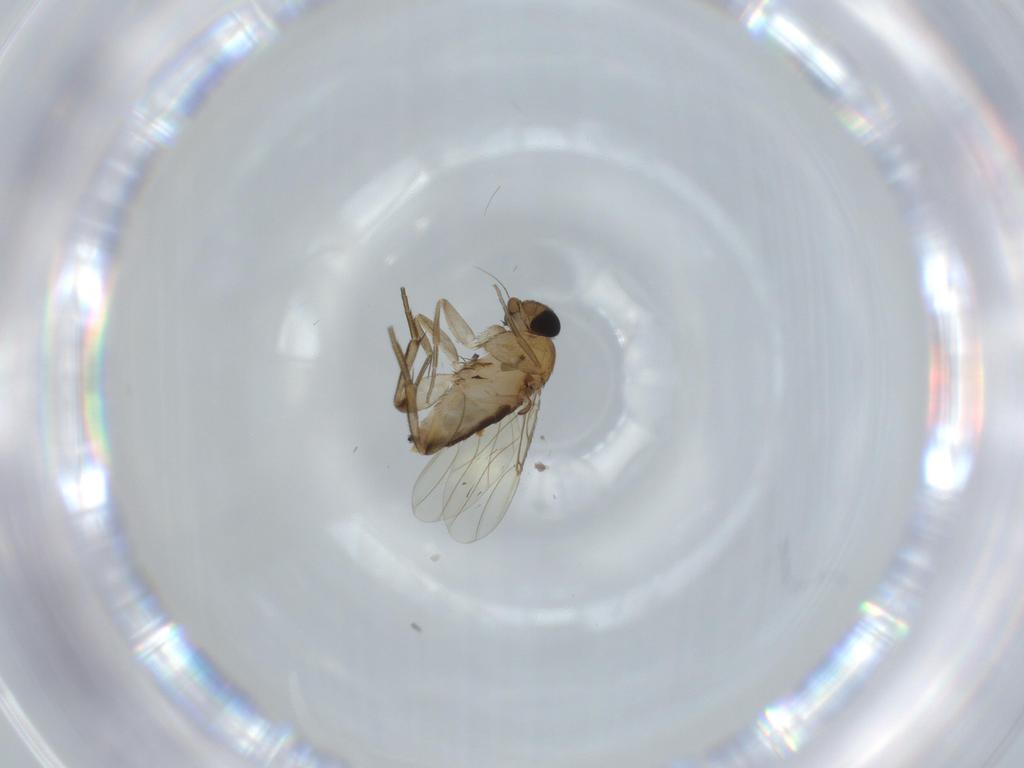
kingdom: Animalia
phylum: Arthropoda
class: Insecta
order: Diptera
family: Phoridae
